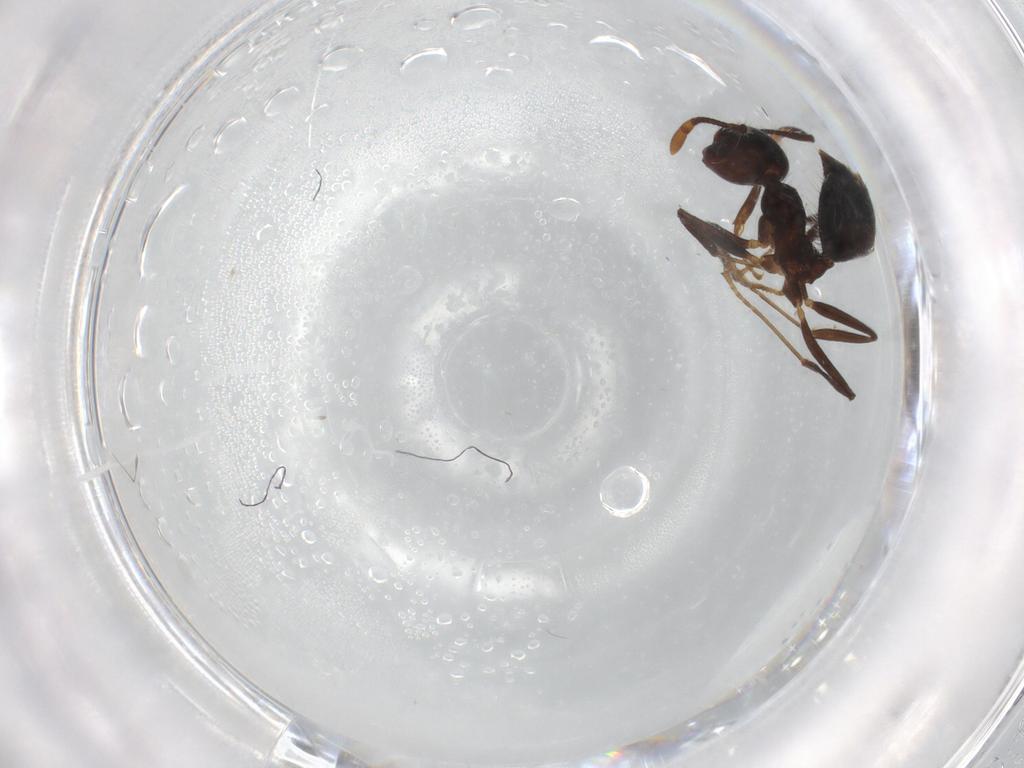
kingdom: Animalia
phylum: Arthropoda
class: Insecta
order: Hymenoptera
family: Formicidae
